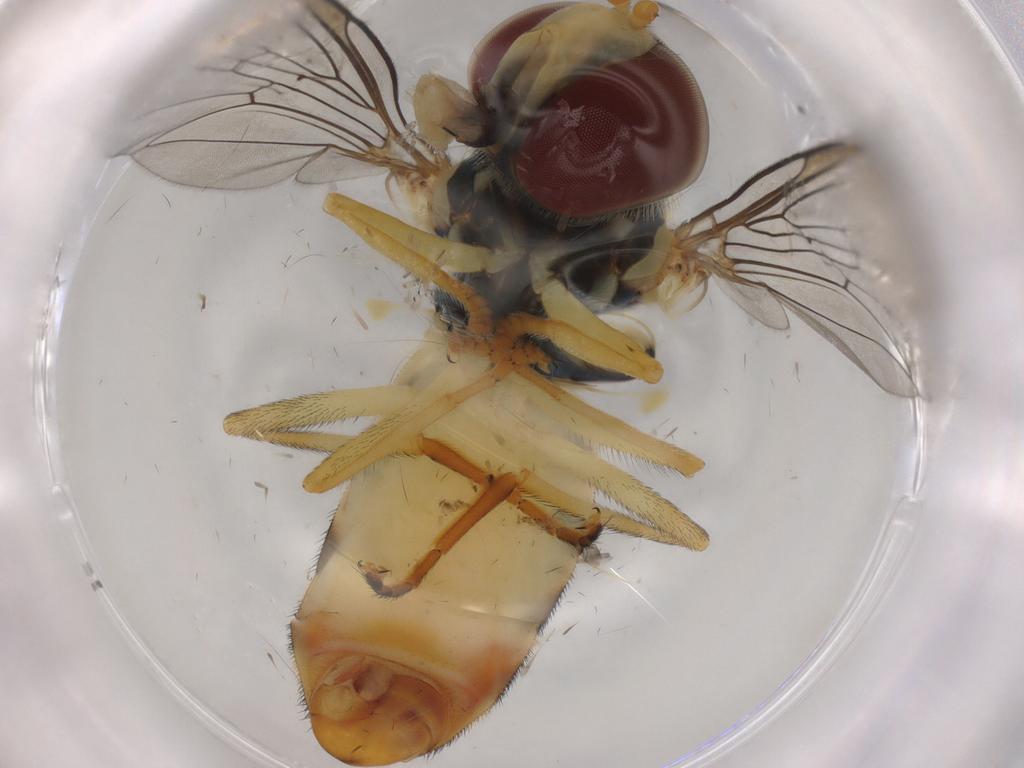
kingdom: Animalia
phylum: Arthropoda
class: Insecta
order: Diptera
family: Syrphidae
